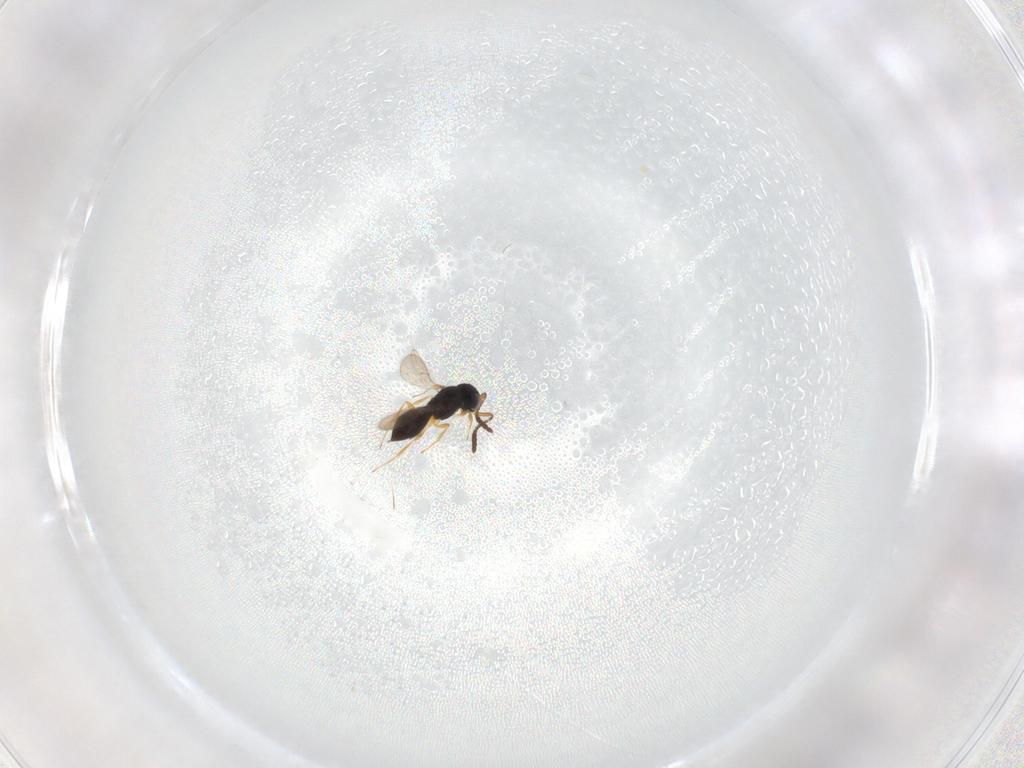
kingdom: Animalia
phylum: Arthropoda
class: Insecta
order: Hymenoptera
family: Scelionidae
